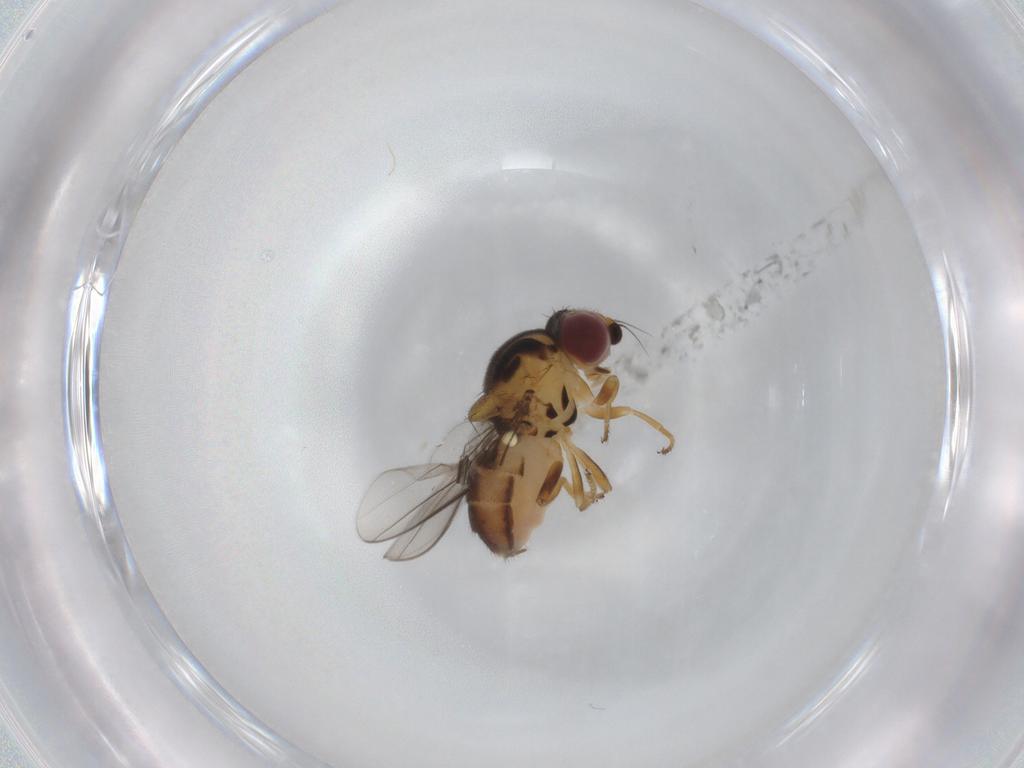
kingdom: Animalia
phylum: Arthropoda
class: Insecta
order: Diptera
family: Chloropidae
